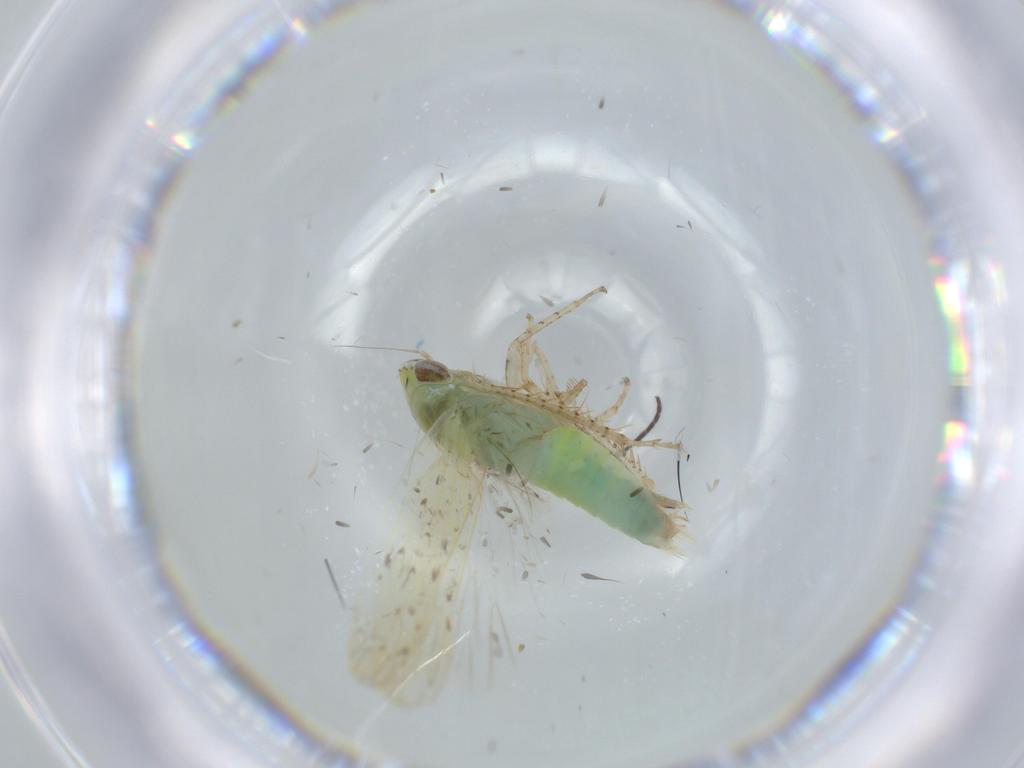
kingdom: Animalia
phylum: Arthropoda
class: Insecta
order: Hemiptera
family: Cicadellidae
